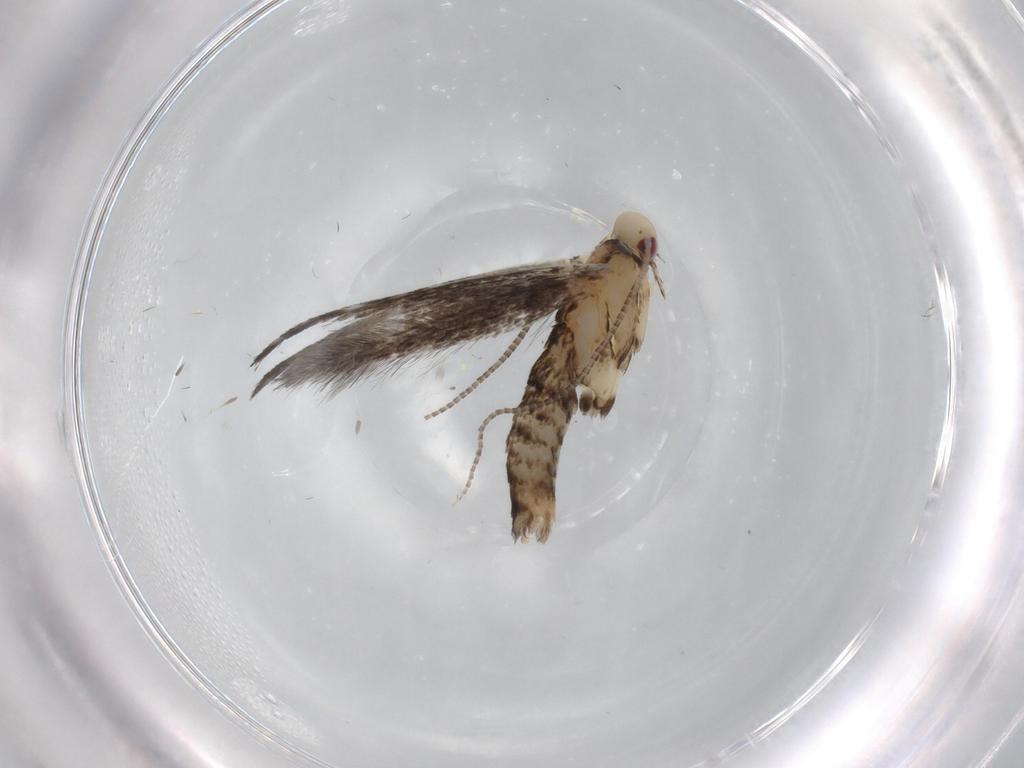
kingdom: Animalia
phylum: Arthropoda
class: Insecta
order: Lepidoptera
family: Gracillariidae
